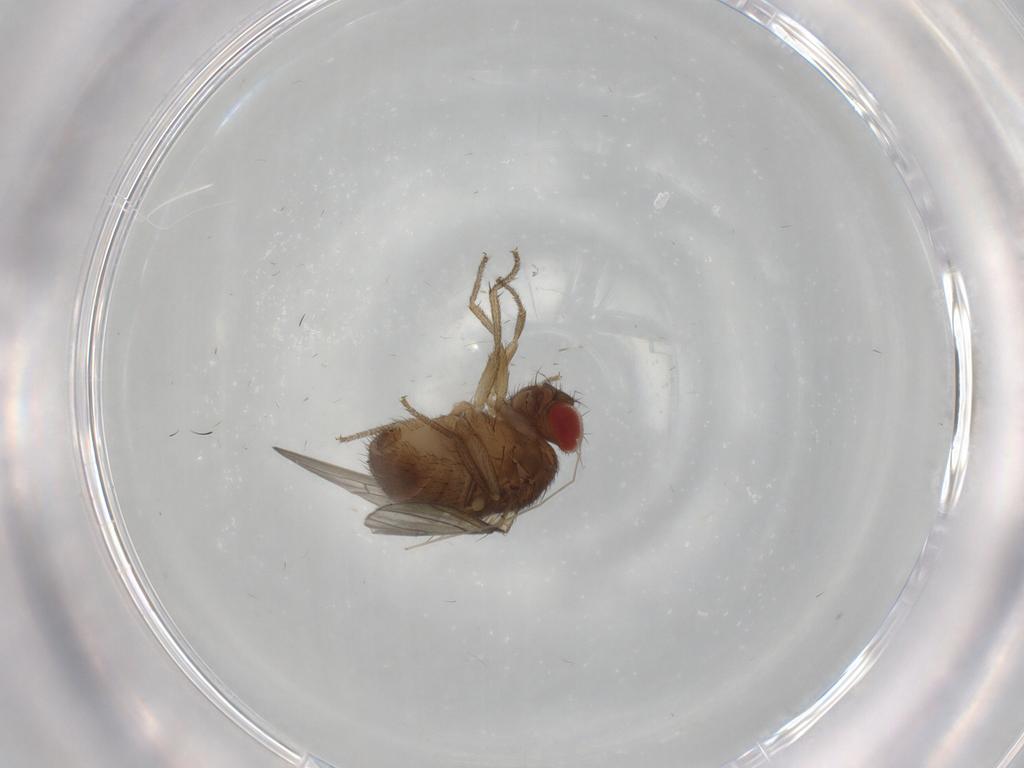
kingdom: Animalia
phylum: Arthropoda
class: Insecta
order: Diptera
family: Drosophilidae
